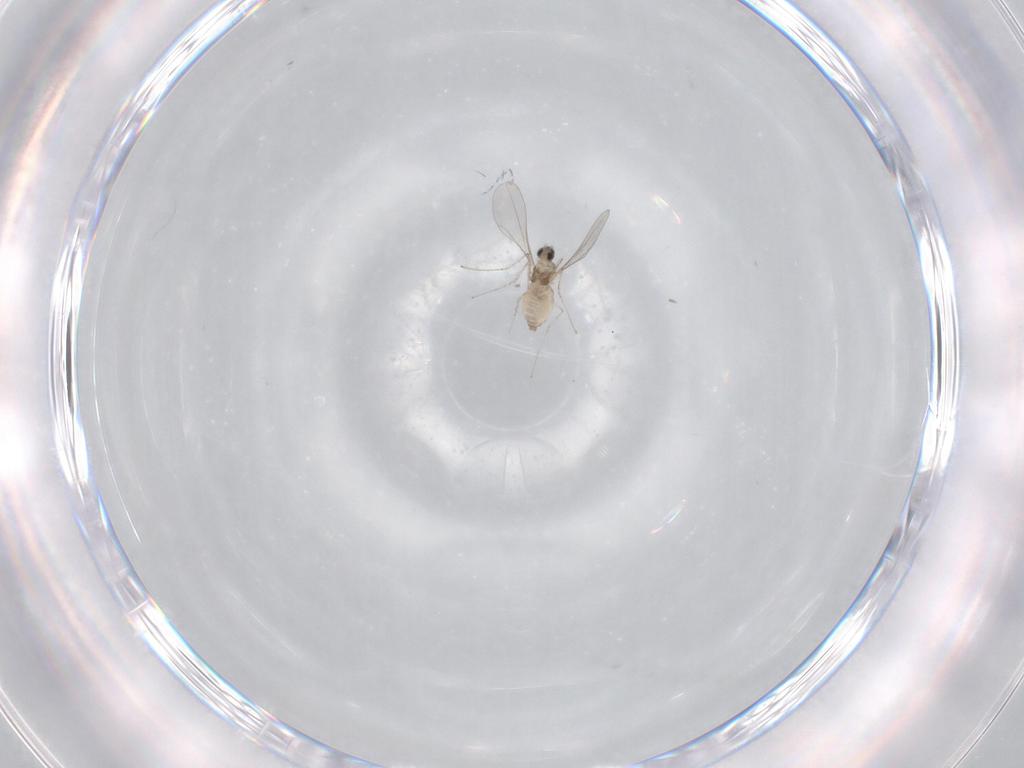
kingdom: Animalia
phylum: Arthropoda
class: Insecta
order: Diptera
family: Cecidomyiidae
